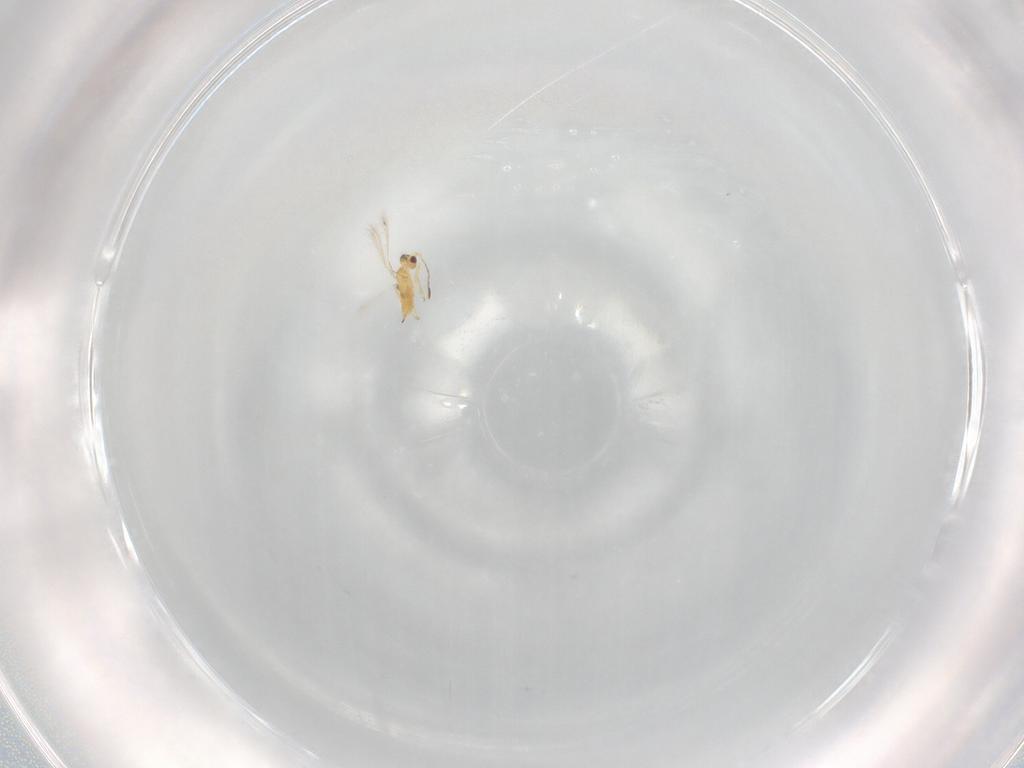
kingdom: Animalia
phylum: Arthropoda
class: Insecta
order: Hymenoptera
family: Mymaridae
